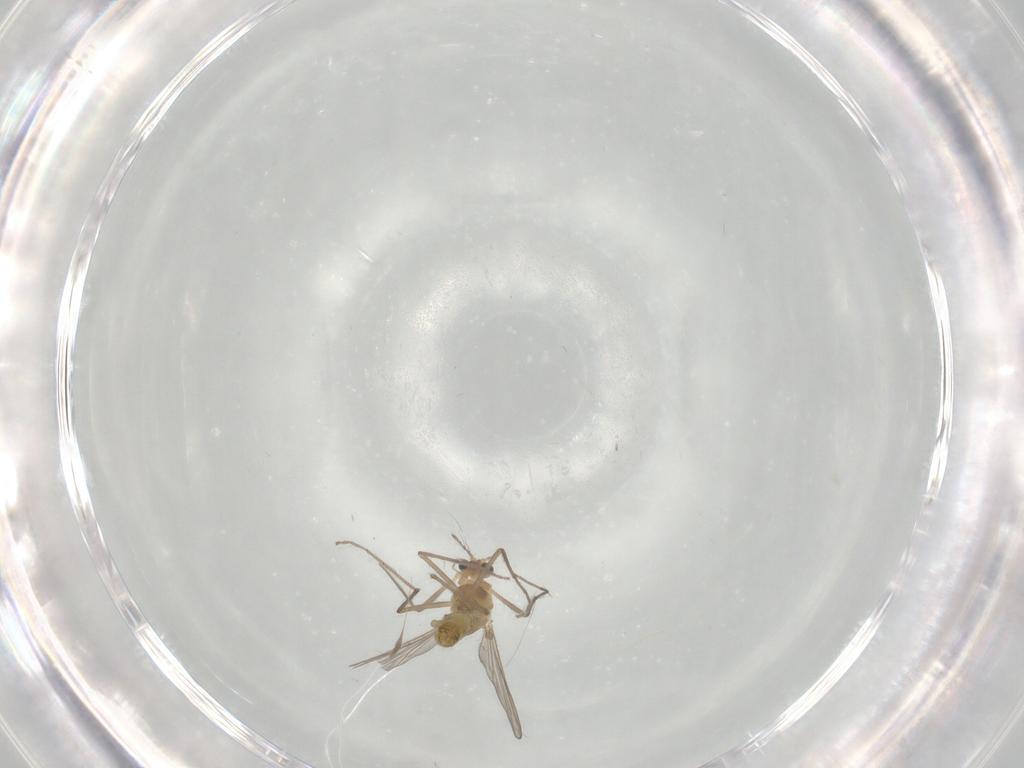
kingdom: Animalia
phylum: Arthropoda
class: Insecta
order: Diptera
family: Chironomidae
